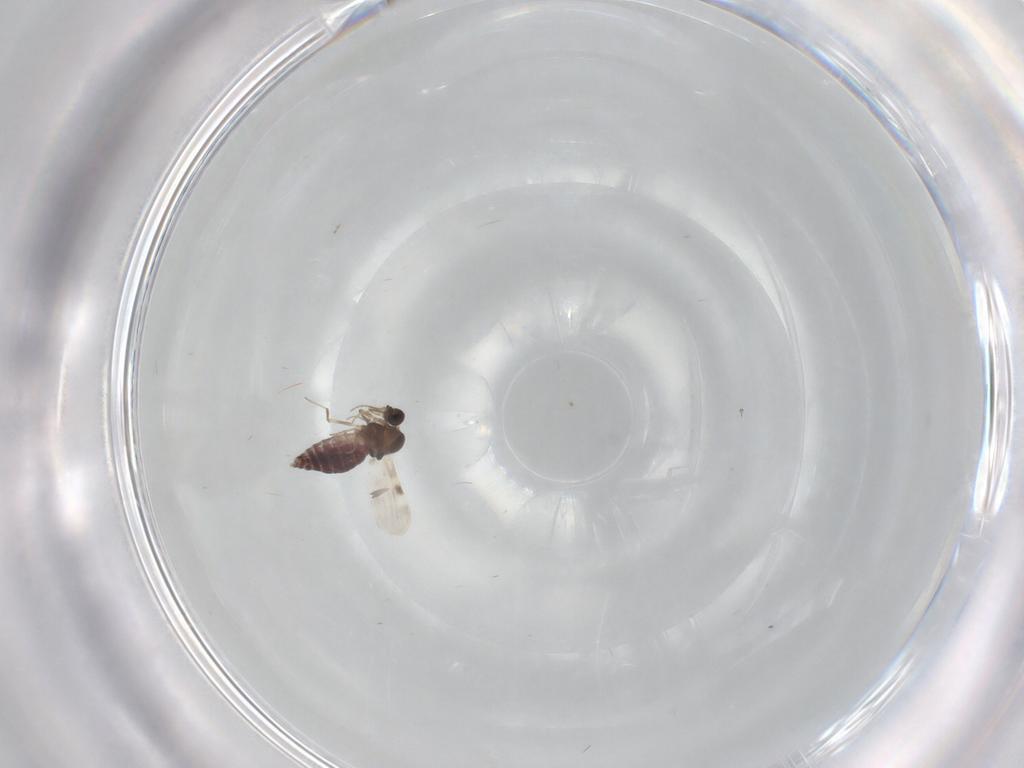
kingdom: Animalia
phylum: Arthropoda
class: Insecta
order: Diptera
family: Cecidomyiidae
